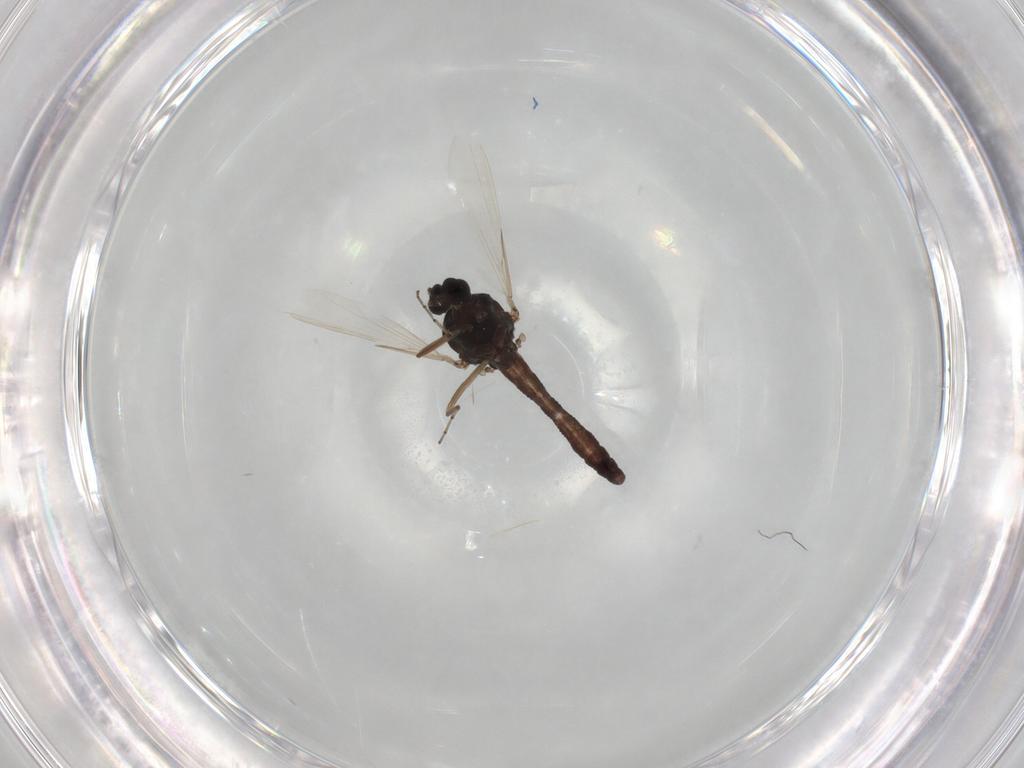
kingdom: Animalia
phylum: Arthropoda
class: Insecta
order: Diptera
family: Ceratopogonidae
